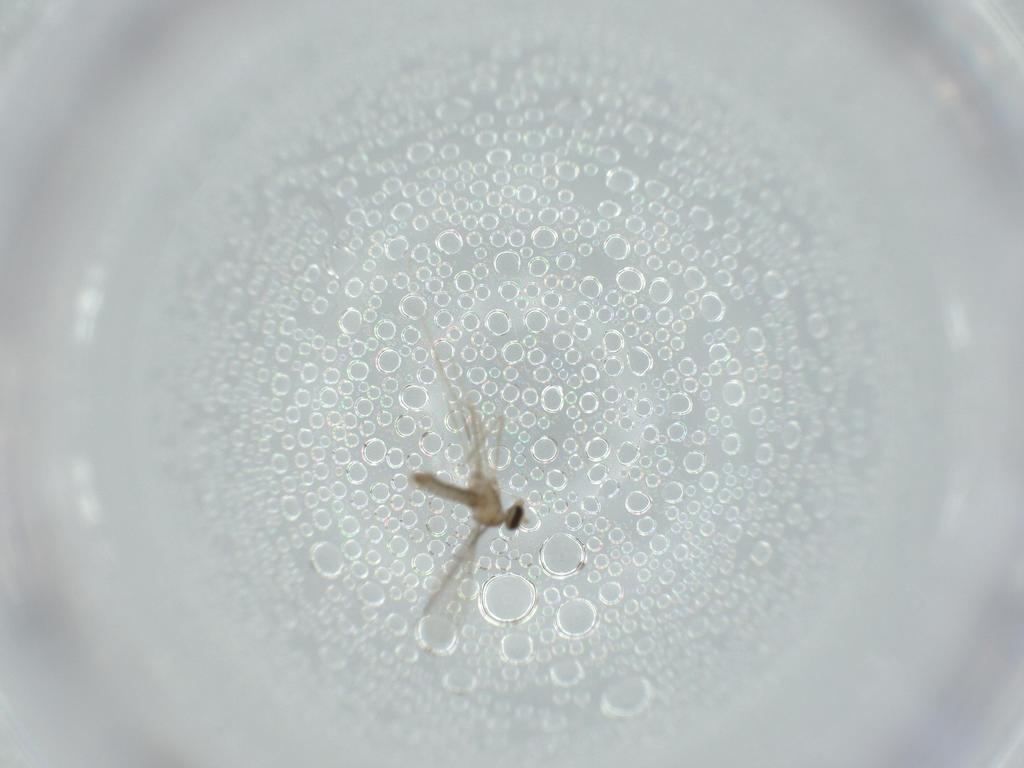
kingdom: Animalia
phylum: Arthropoda
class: Insecta
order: Diptera
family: Cecidomyiidae
